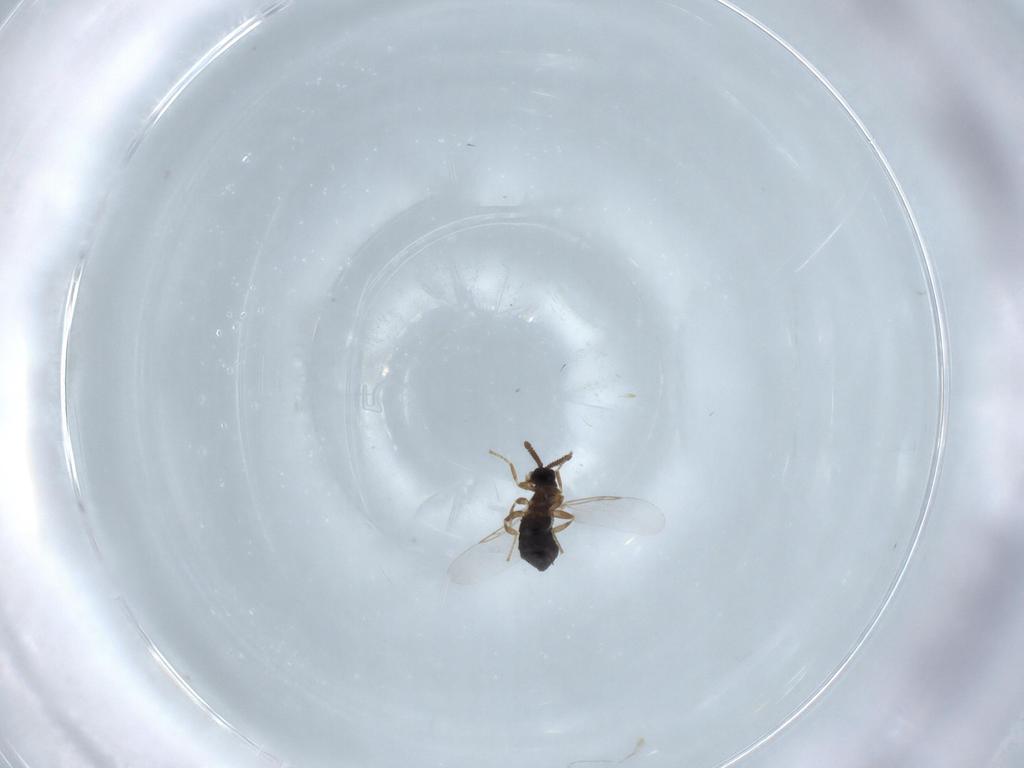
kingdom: Animalia
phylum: Arthropoda
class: Insecta
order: Diptera
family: Scatopsidae
